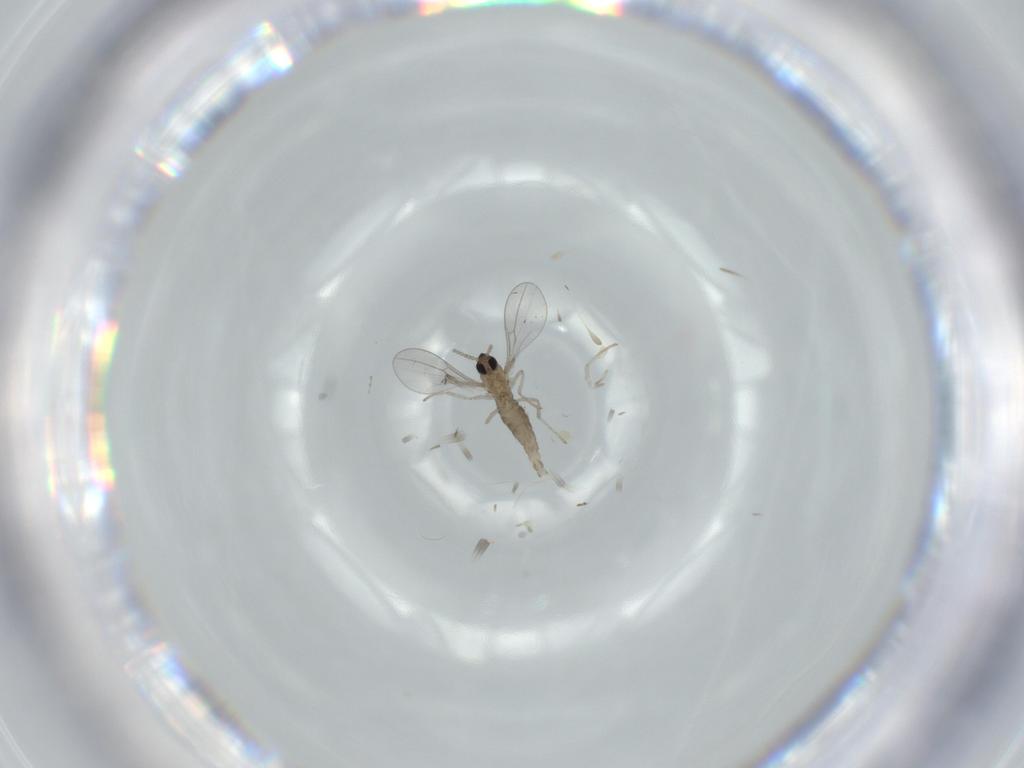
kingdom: Animalia
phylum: Arthropoda
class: Insecta
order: Diptera
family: Cecidomyiidae
